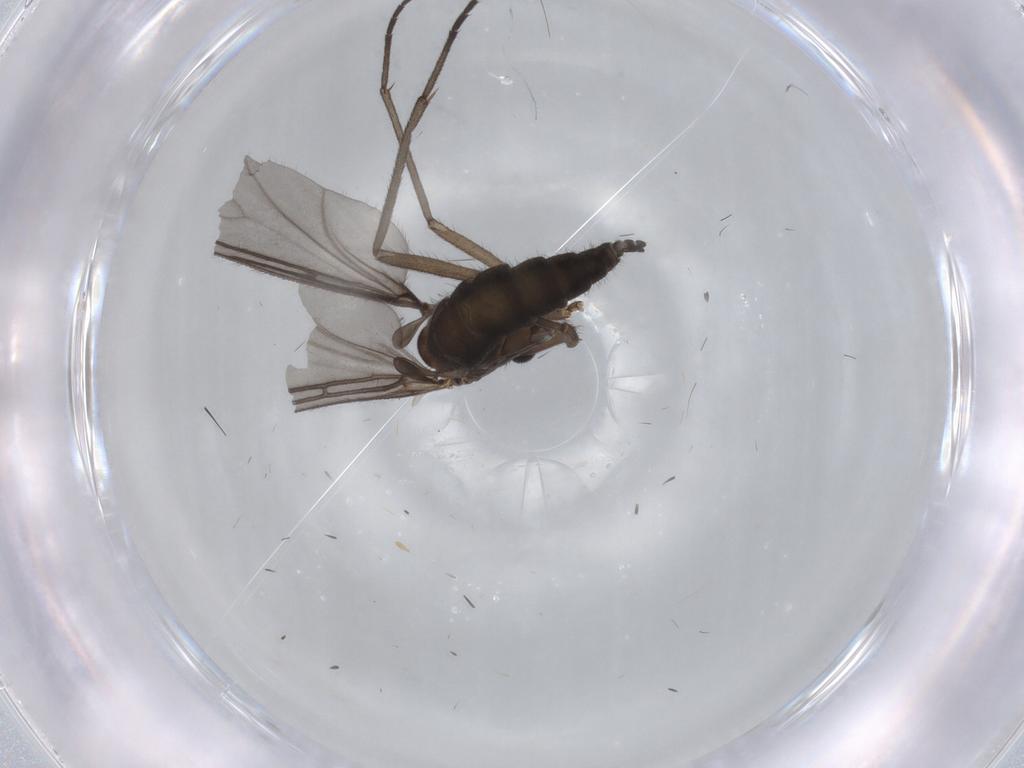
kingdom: Animalia
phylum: Arthropoda
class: Insecta
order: Diptera
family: Sciaridae
